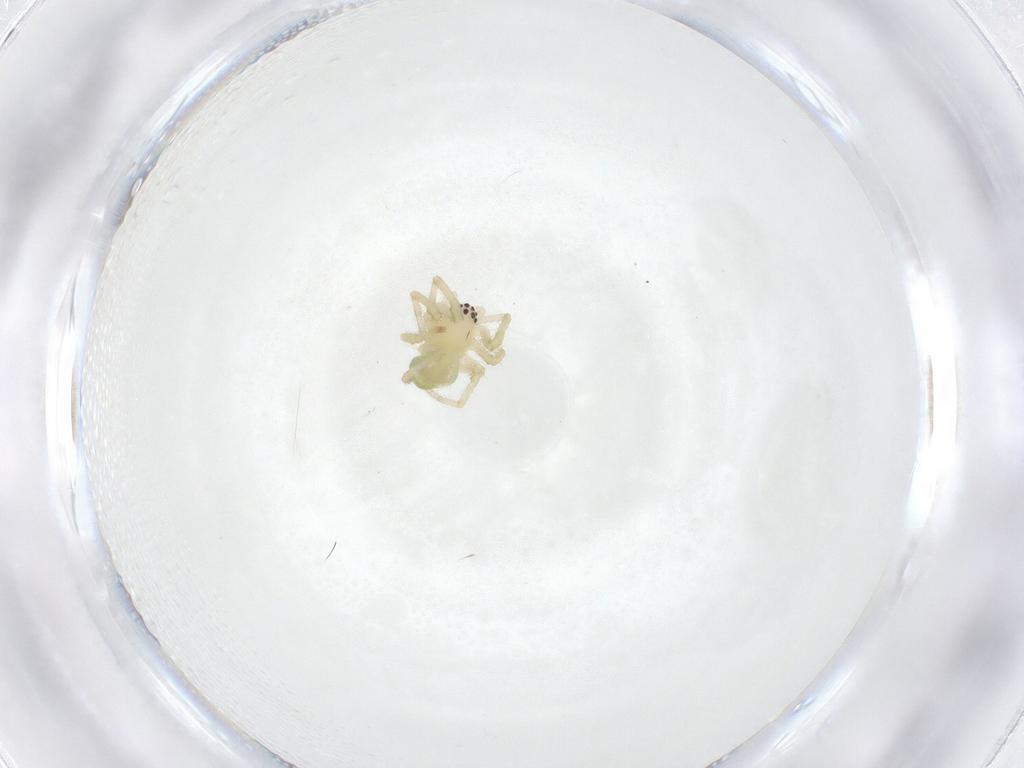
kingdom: Animalia
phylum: Arthropoda
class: Arachnida
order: Araneae
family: Tetragnathidae
